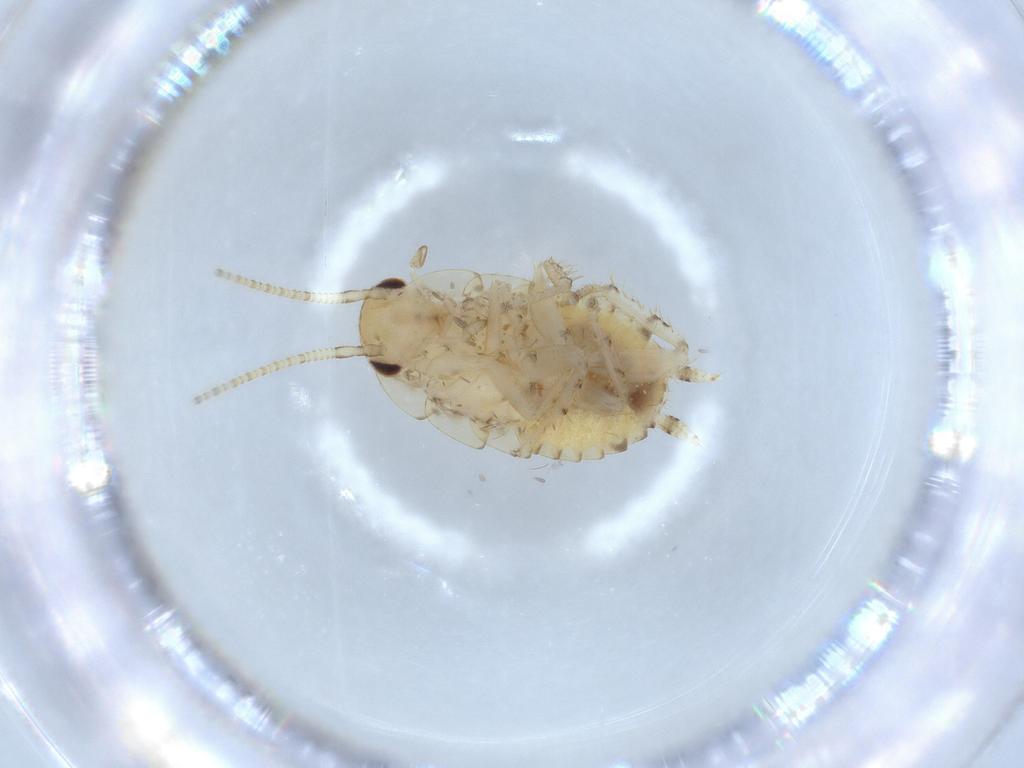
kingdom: Animalia
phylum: Arthropoda
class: Insecta
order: Blattodea
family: Ectobiidae
